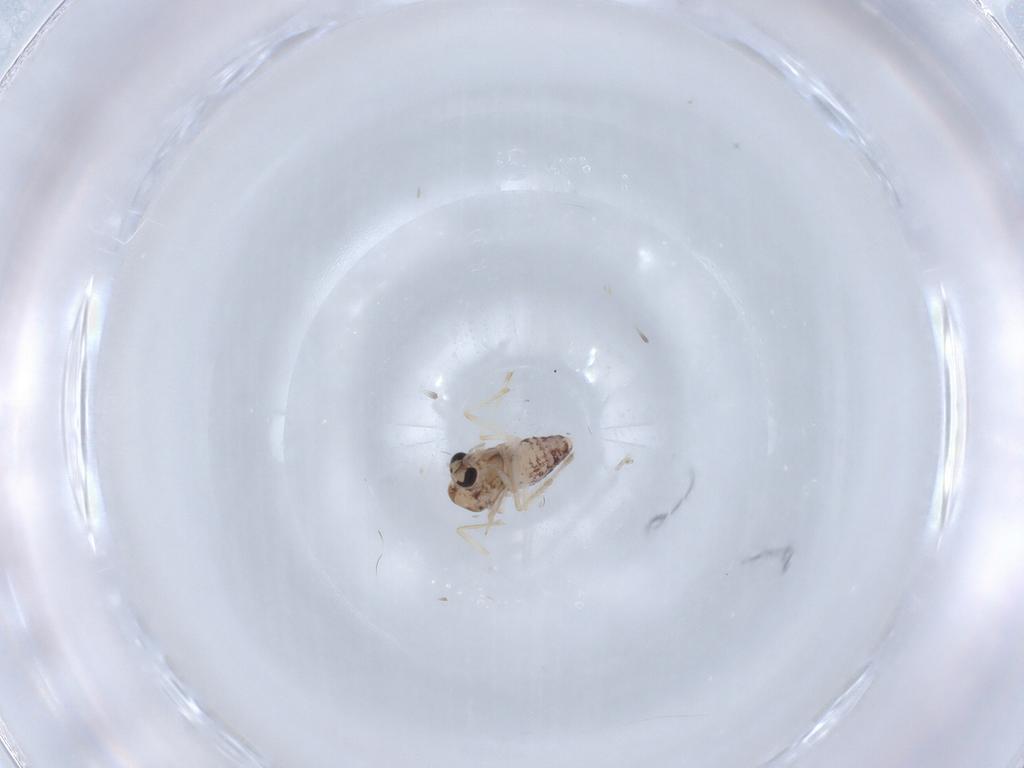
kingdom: Animalia
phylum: Arthropoda
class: Insecta
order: Diptera
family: Chironomidae
